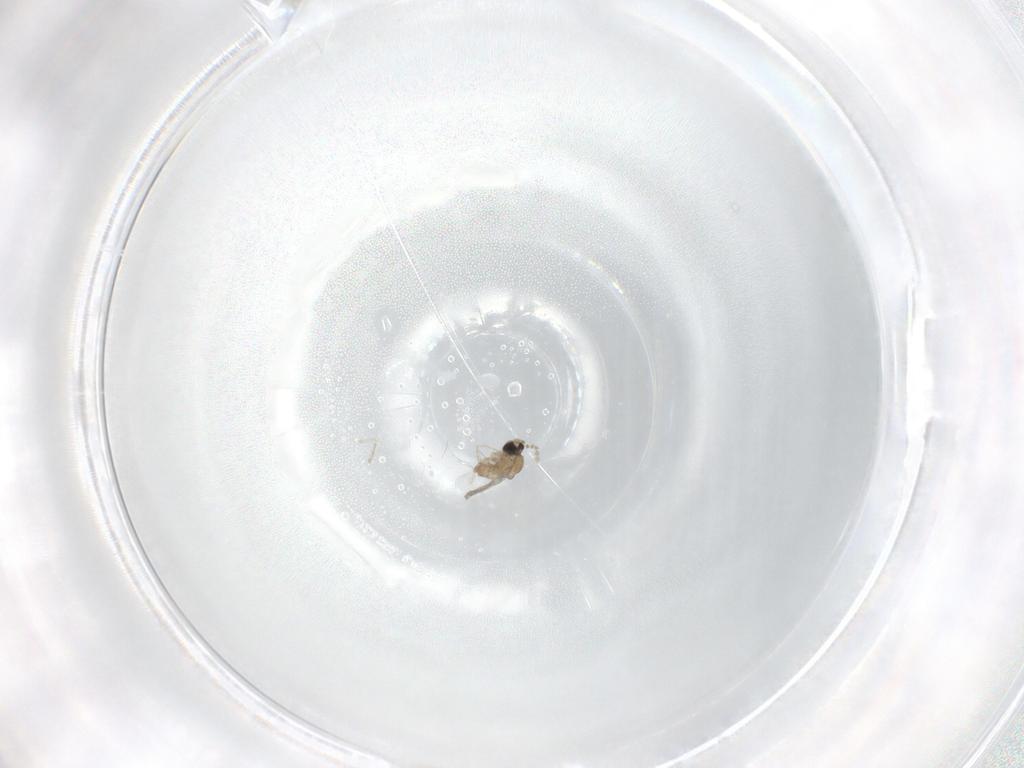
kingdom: Animalia
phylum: Arthropoda
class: Insecta
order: Diptera
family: Cecidomyiidae
